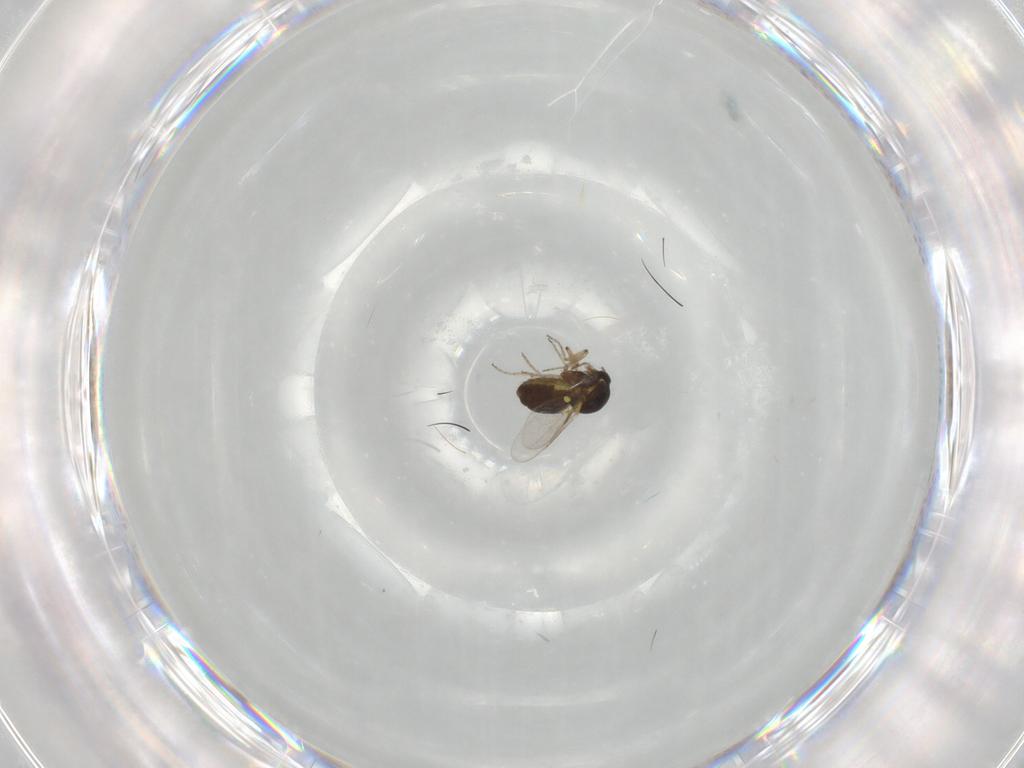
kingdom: Animalia
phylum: Arthropoda
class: Insecta
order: Diptera
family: Ceratopogonidae
